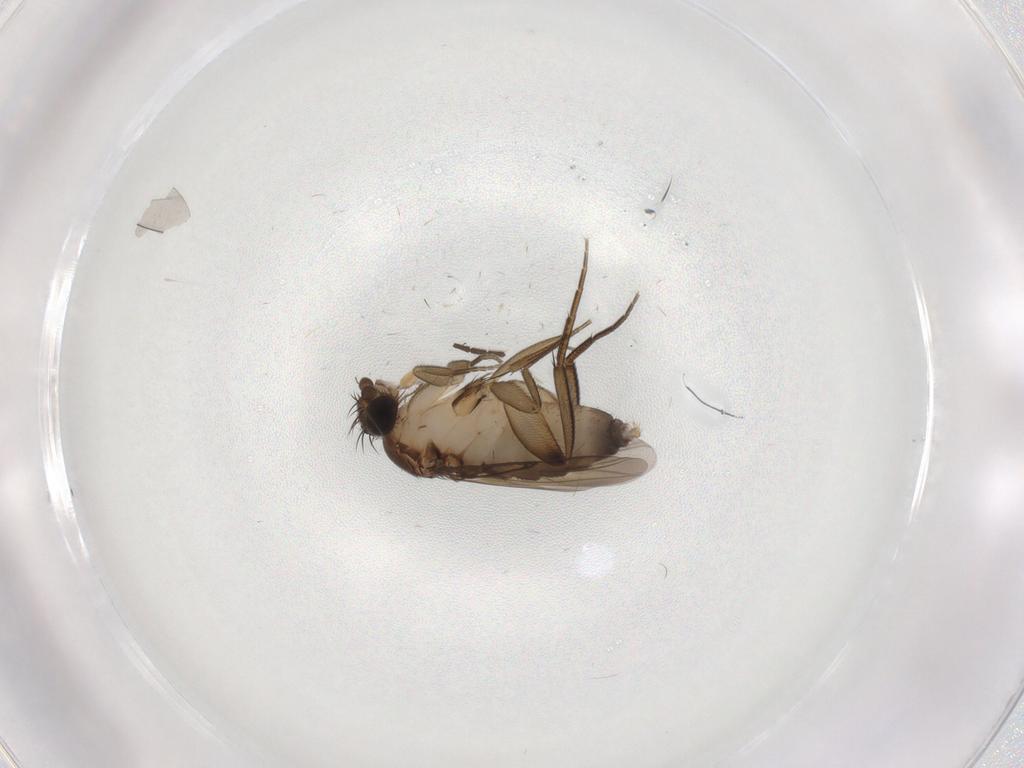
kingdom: Animalia
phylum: Arthropoda
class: Insecta
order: Diptera
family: Phoridae
